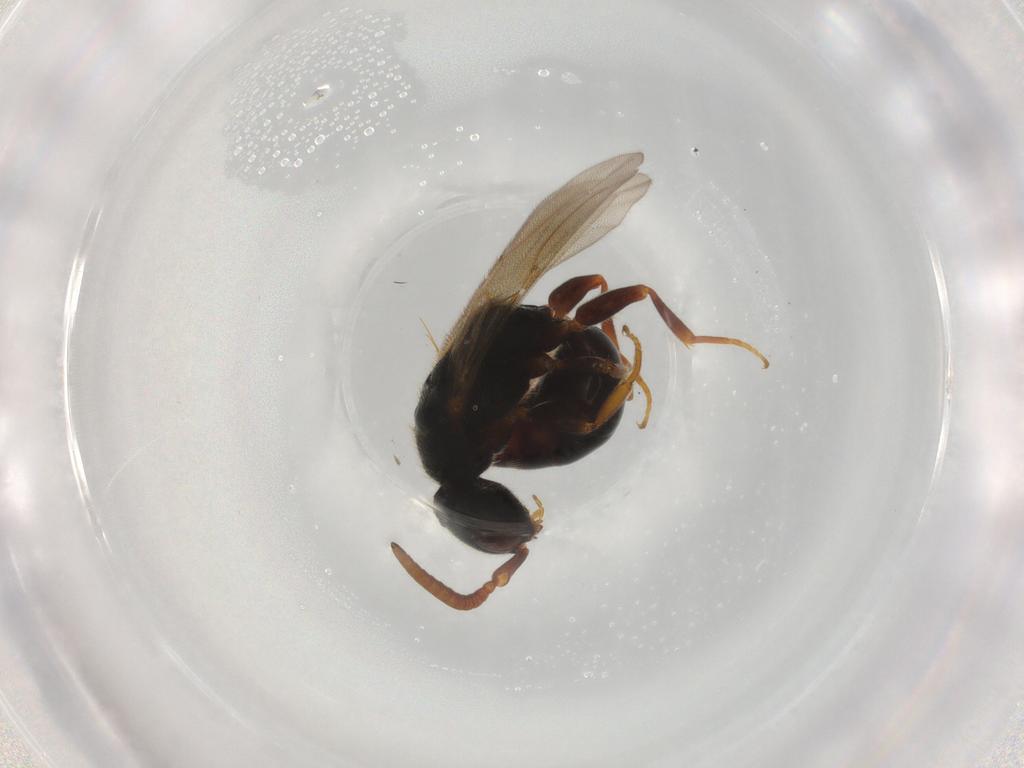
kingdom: Animalia
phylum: Arthropoda
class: Insecta
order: Hymenoptera
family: Bethylidae
